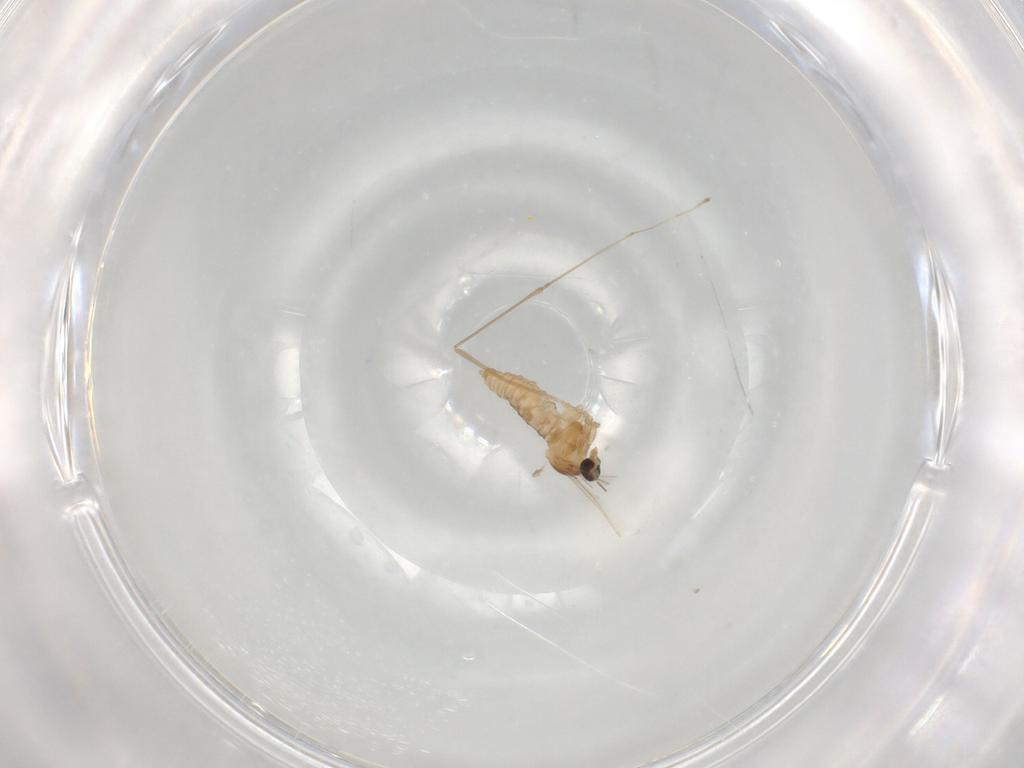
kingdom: Animalia
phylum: Arthropoda
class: Insecta
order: Diptera
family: Cecidomyiidae
